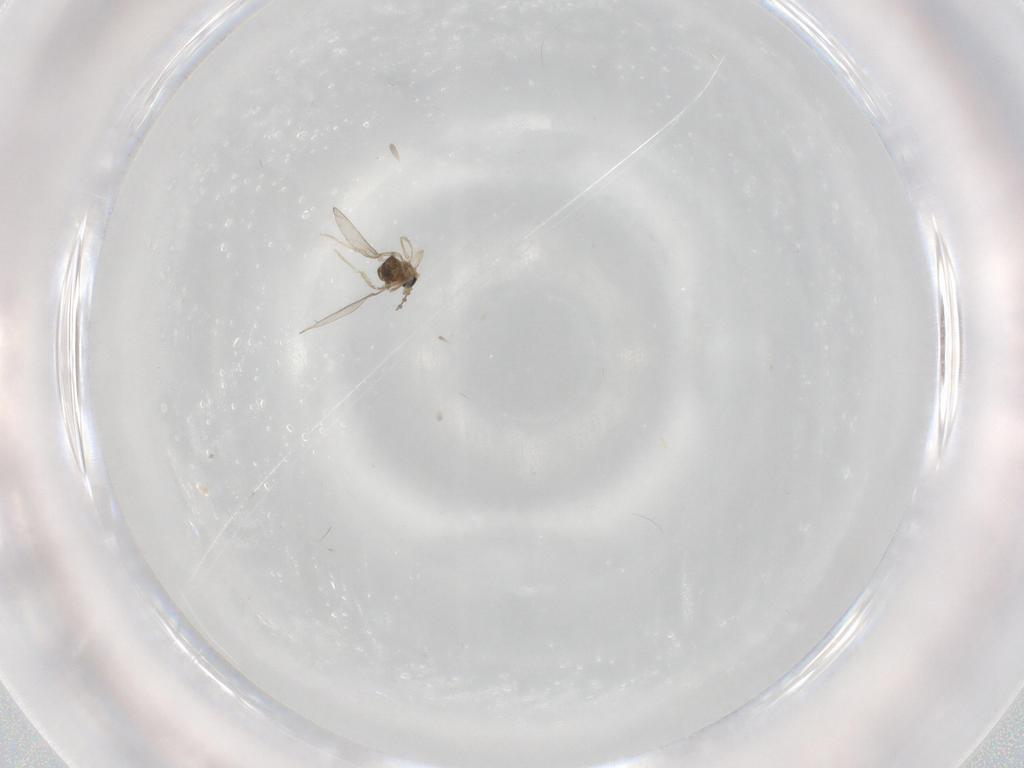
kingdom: Animalia
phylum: Arthropoda
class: Insecta
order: Diptera
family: Cecidomyiidae
